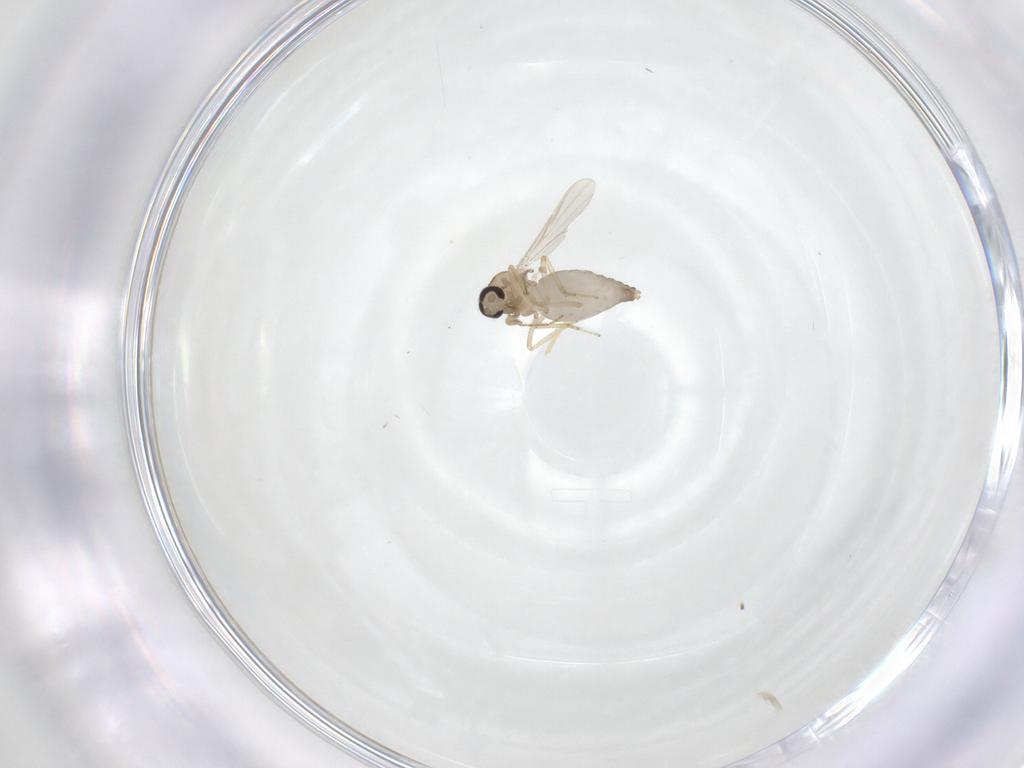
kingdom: Animalia
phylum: Arthropoda
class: Insecta
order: Diptera
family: Ceratopogonidae
